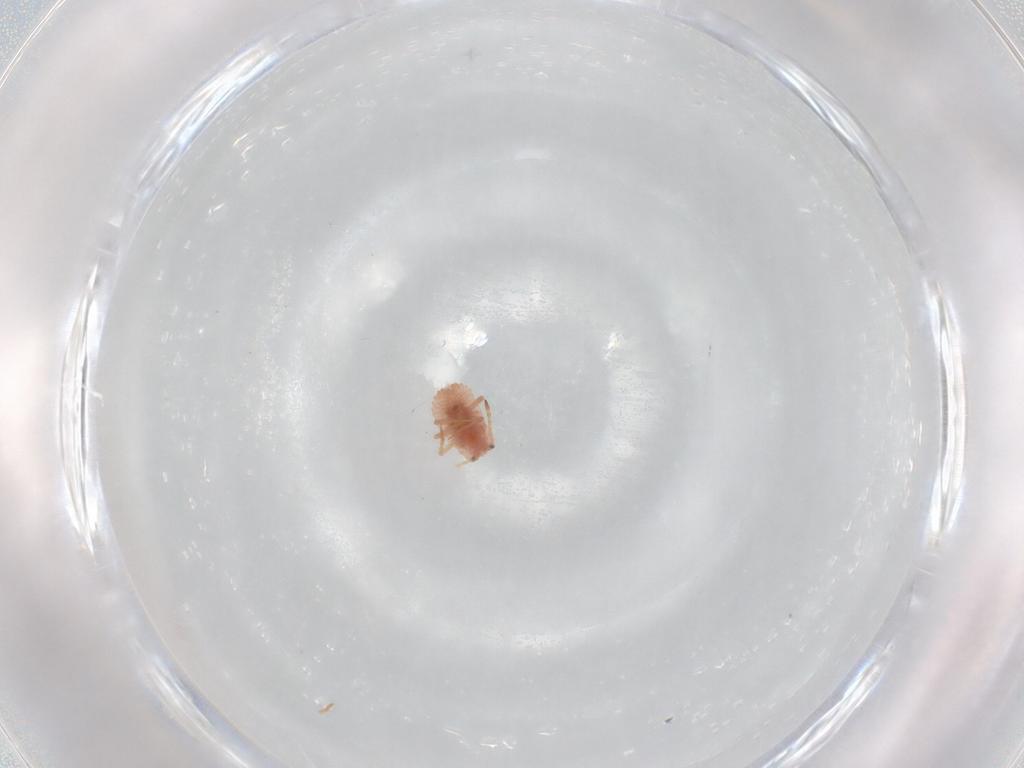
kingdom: Animalia
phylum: Arthropoda
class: Insecta
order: Hemiptera
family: Coccoidea_incertae_sedis
